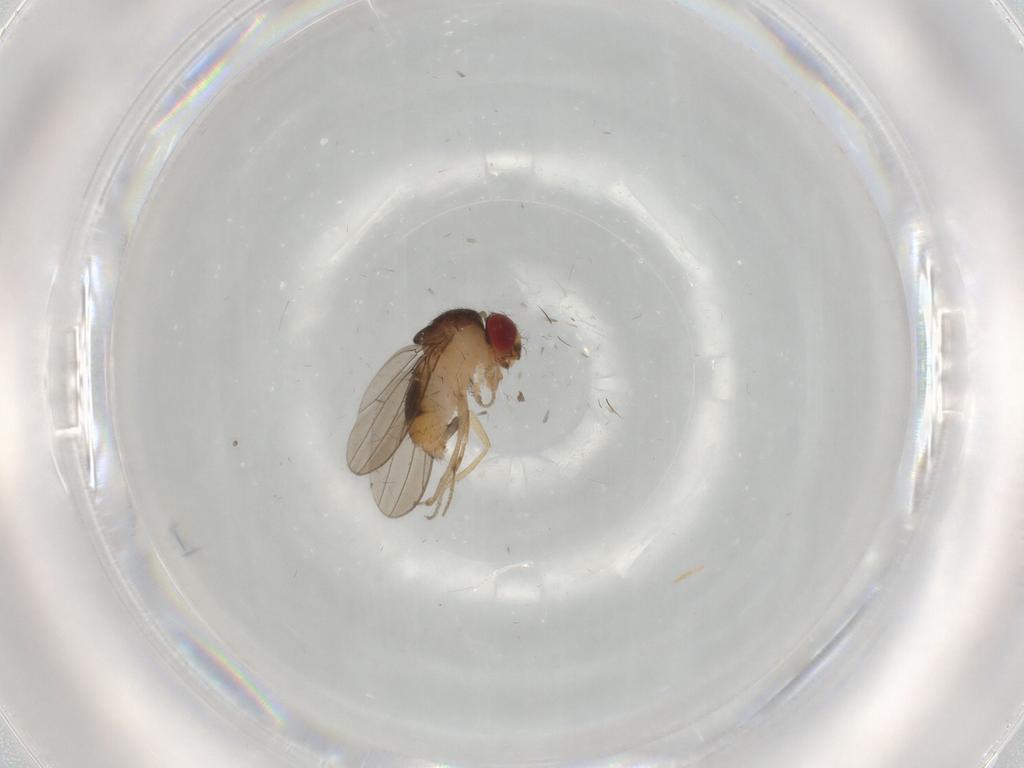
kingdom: Animalia
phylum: Arthropoda
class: Insecta
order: Diptera
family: Drosophilidae
